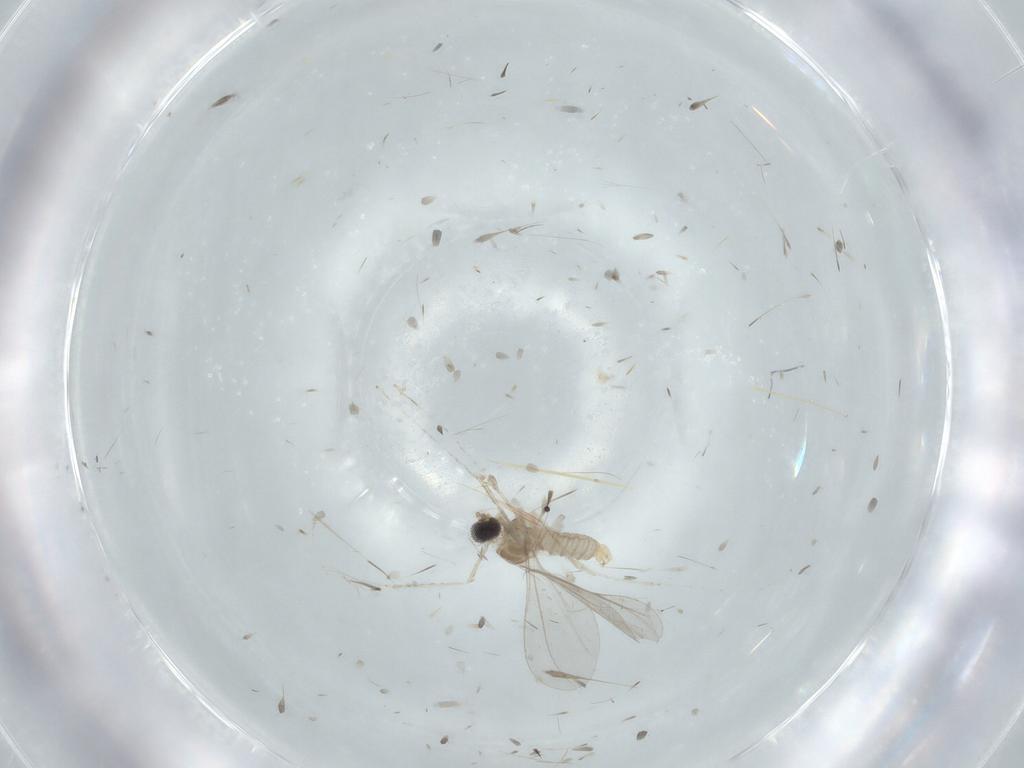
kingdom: Animalia
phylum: Arthropoda
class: Insecta
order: Diptera
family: Cecidomyiidae
